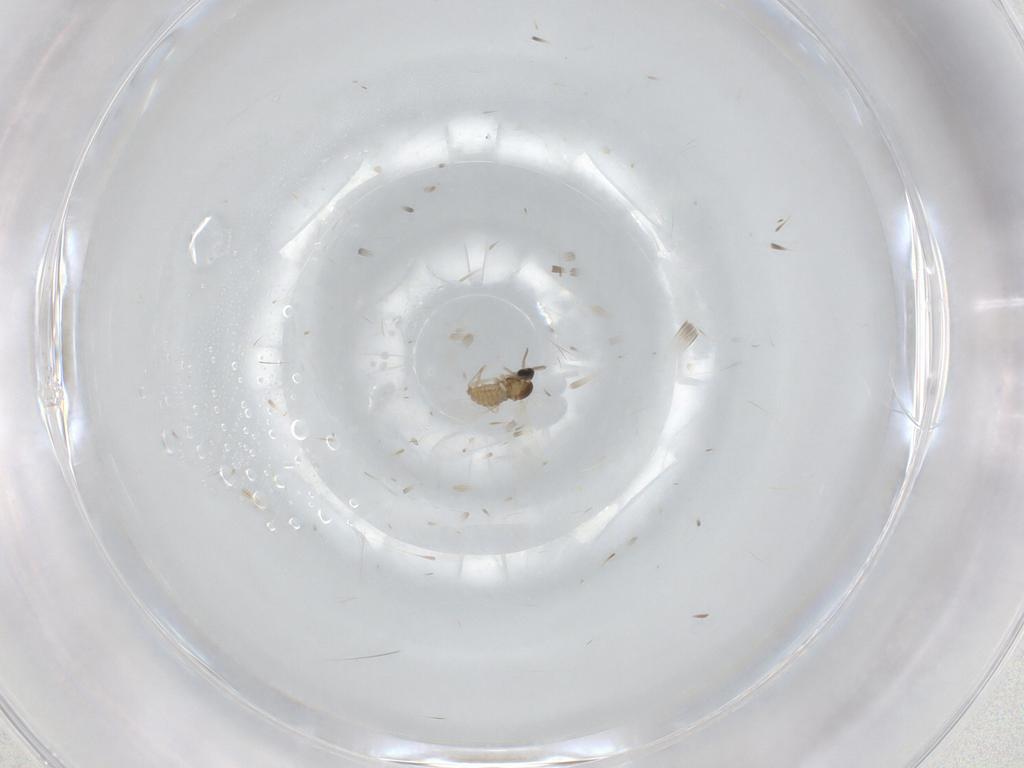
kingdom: Animalia
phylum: Arthropoda
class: Insecta
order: Diptera
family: Cecidomyiidae
